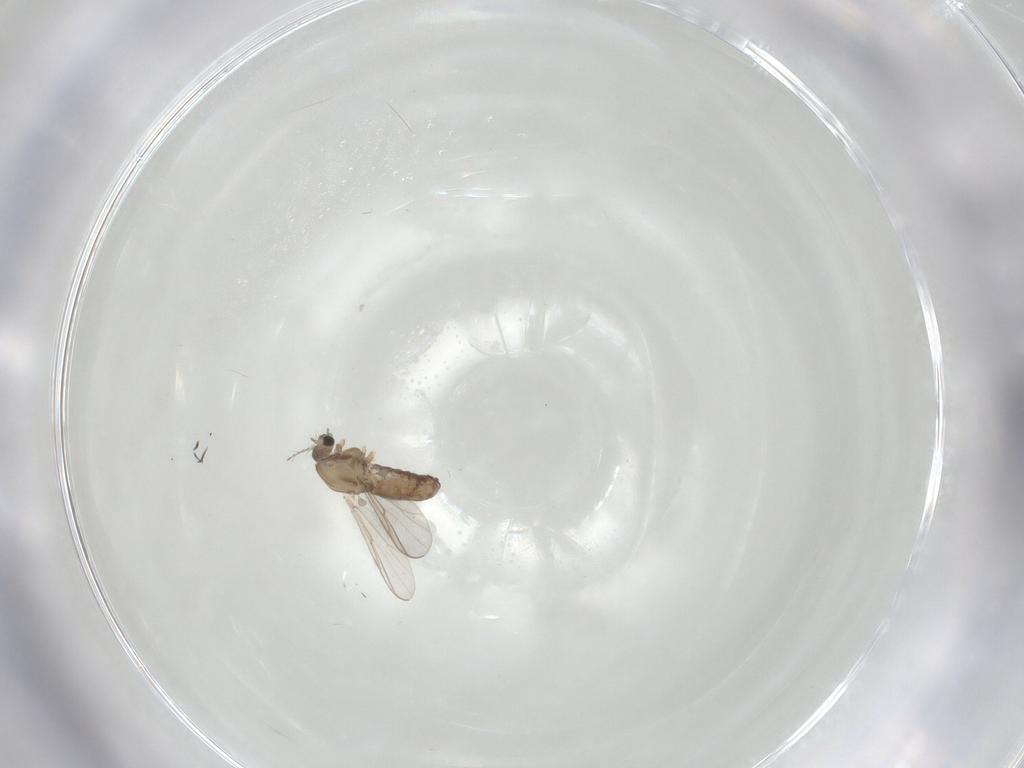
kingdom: Animalia
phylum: Arthropoda
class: Insecta
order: Diptera
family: Chironomidae
